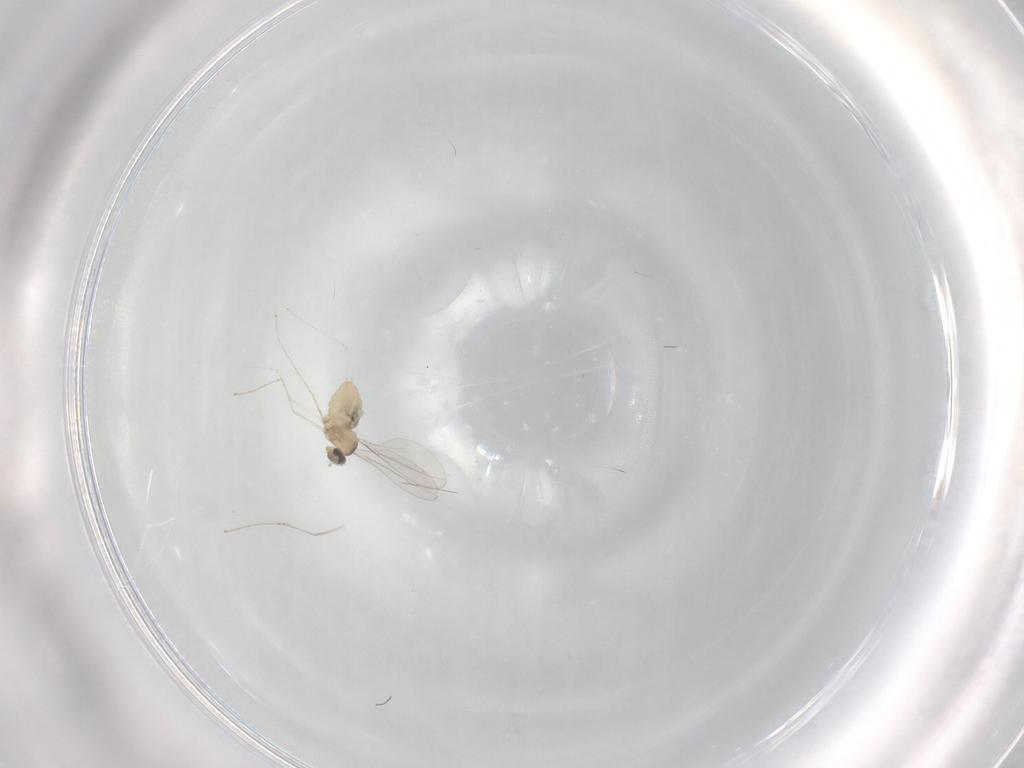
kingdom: Animalia
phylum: Arthropoda
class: Insecta
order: Diptera
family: Cecidomyiidae
